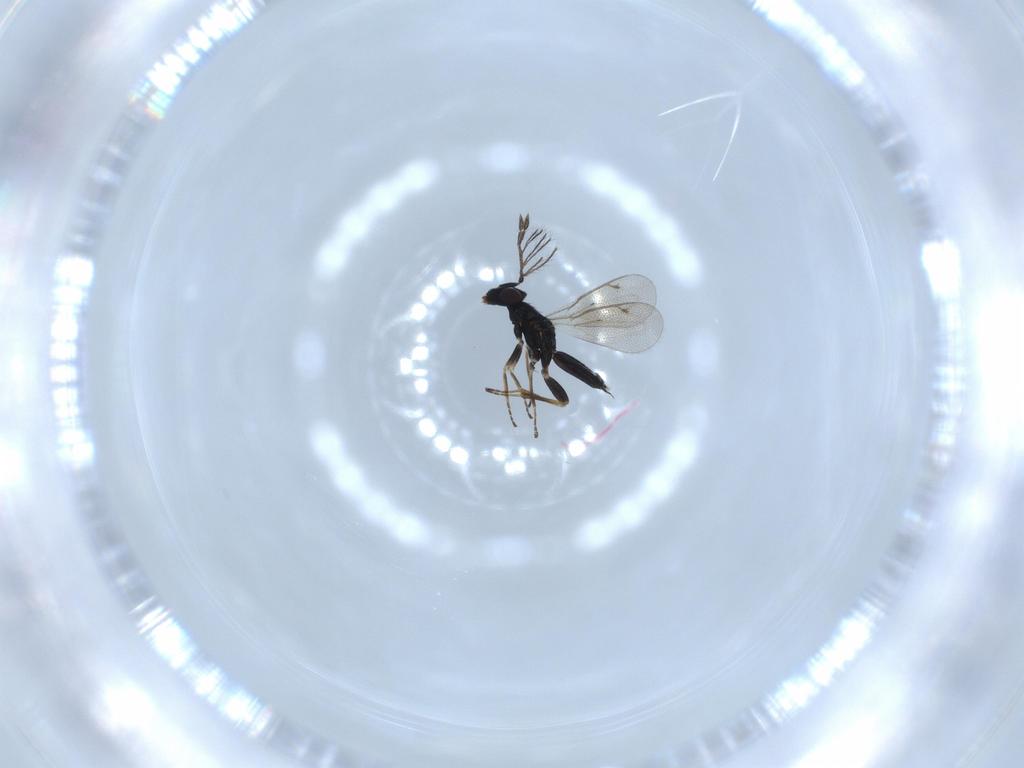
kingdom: Animalia
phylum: Arthropoda
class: Insecta
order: Hymenoptera
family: Eulophidae
